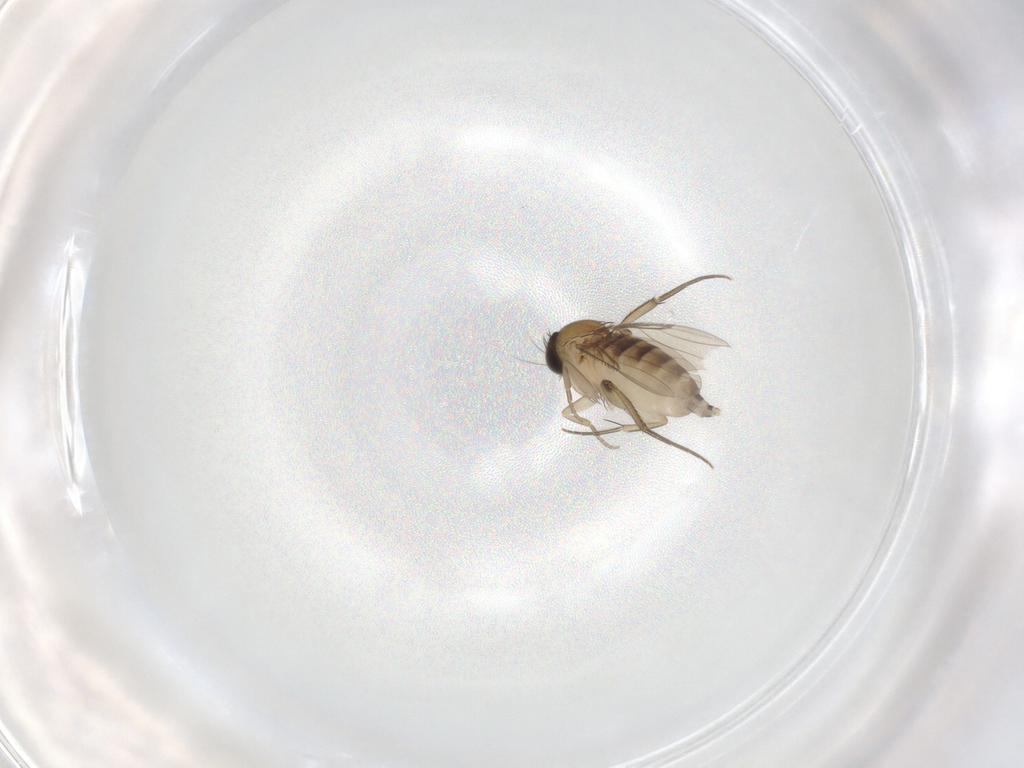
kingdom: Animalia
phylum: Arthropoda
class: Insecta
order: Diptera
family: Phoridae
